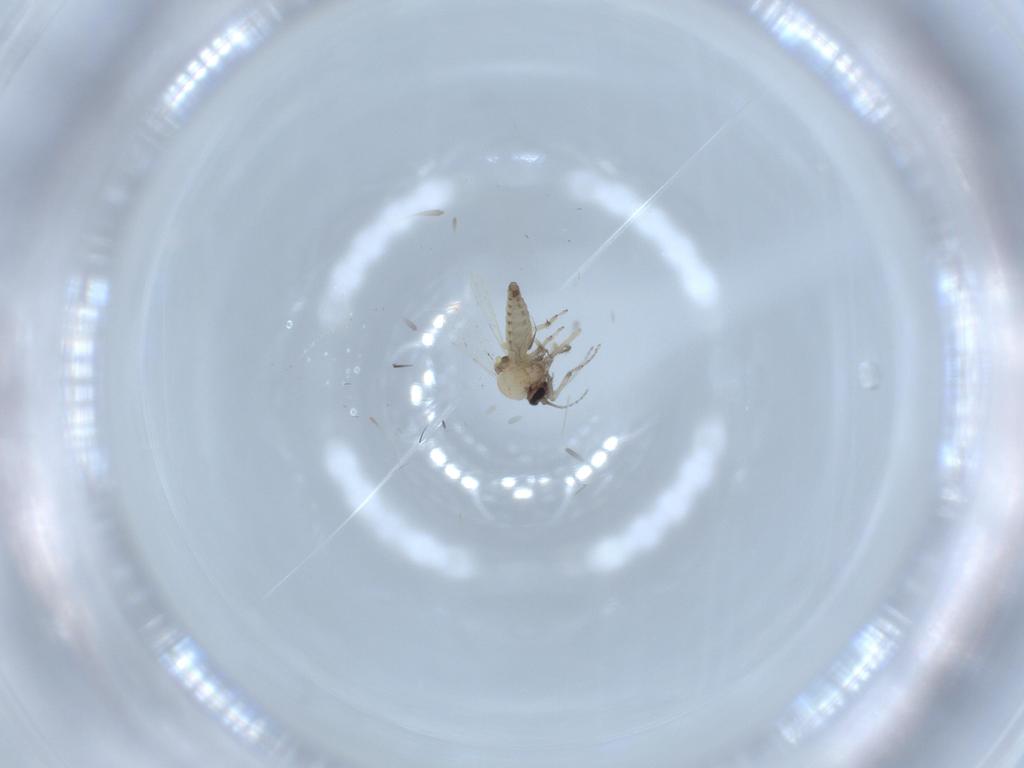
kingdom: Animalia
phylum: Arthropoda
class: Insecta
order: Diptera
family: Ceratopogonidae
